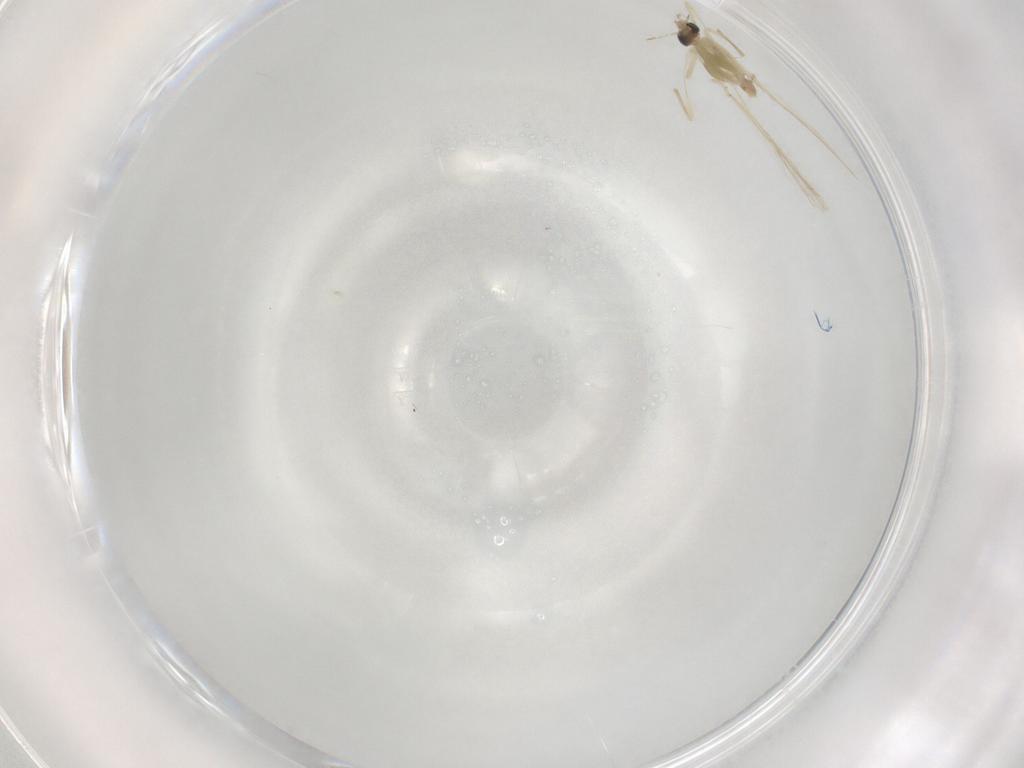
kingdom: Animalia
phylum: Arthropoda
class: Insecta
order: Diptera
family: Chironomidae
